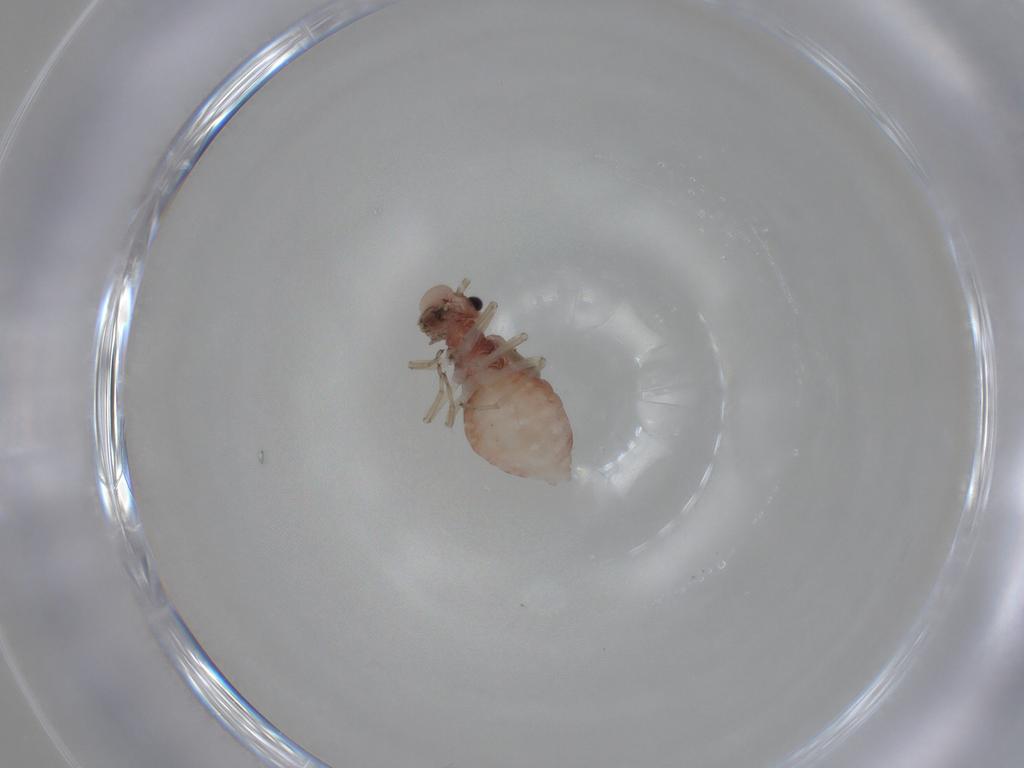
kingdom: Animalia
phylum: Arthropoda
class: Insecta
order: Psocodea
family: Caeciliusidae
